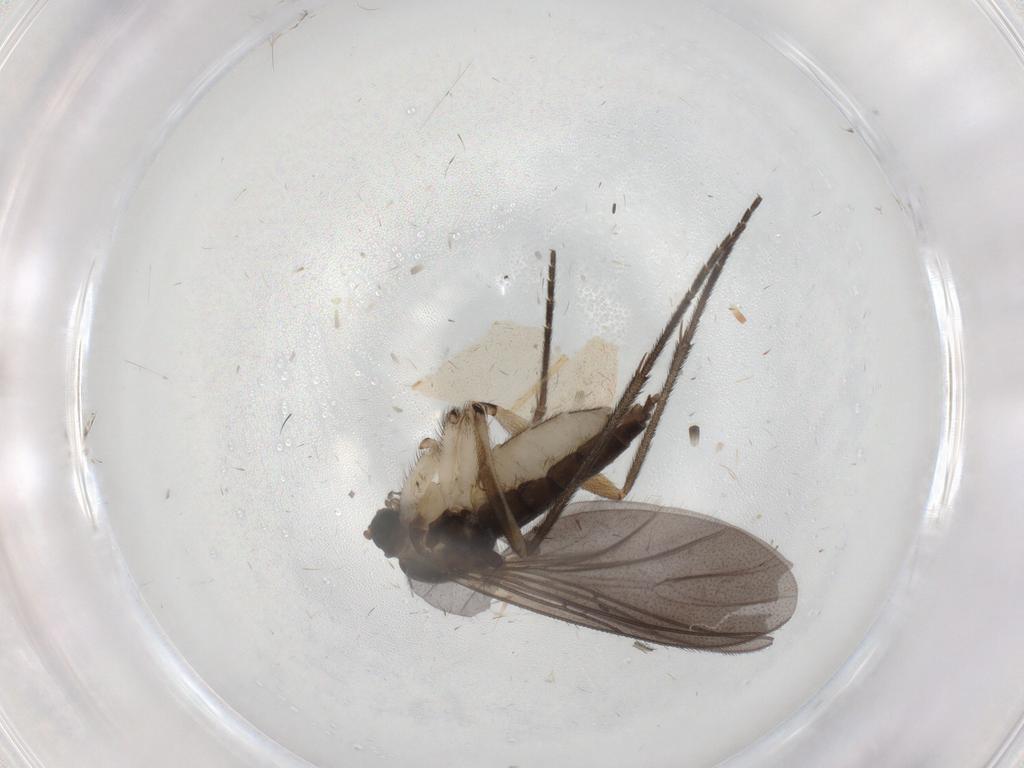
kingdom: Animalia
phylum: Arthropoda
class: Insecta
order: Diptera
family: Sciaridae
